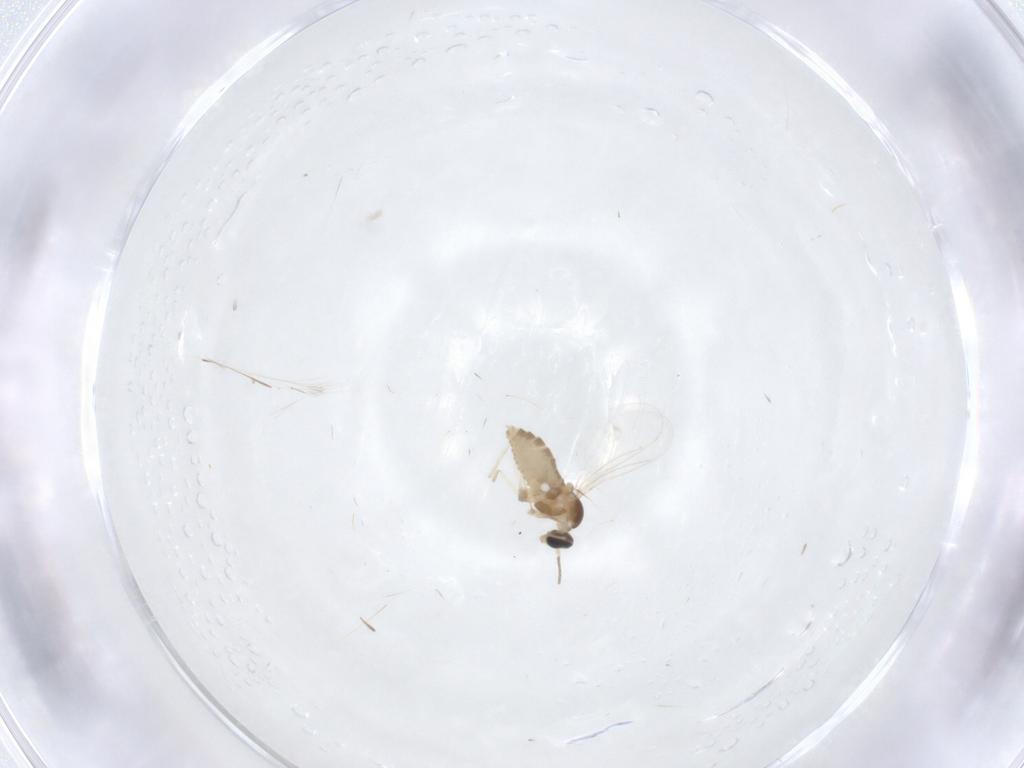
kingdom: Animalia
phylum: Arthropoda
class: Insecta
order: Diptera
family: Cecidomyiidae
